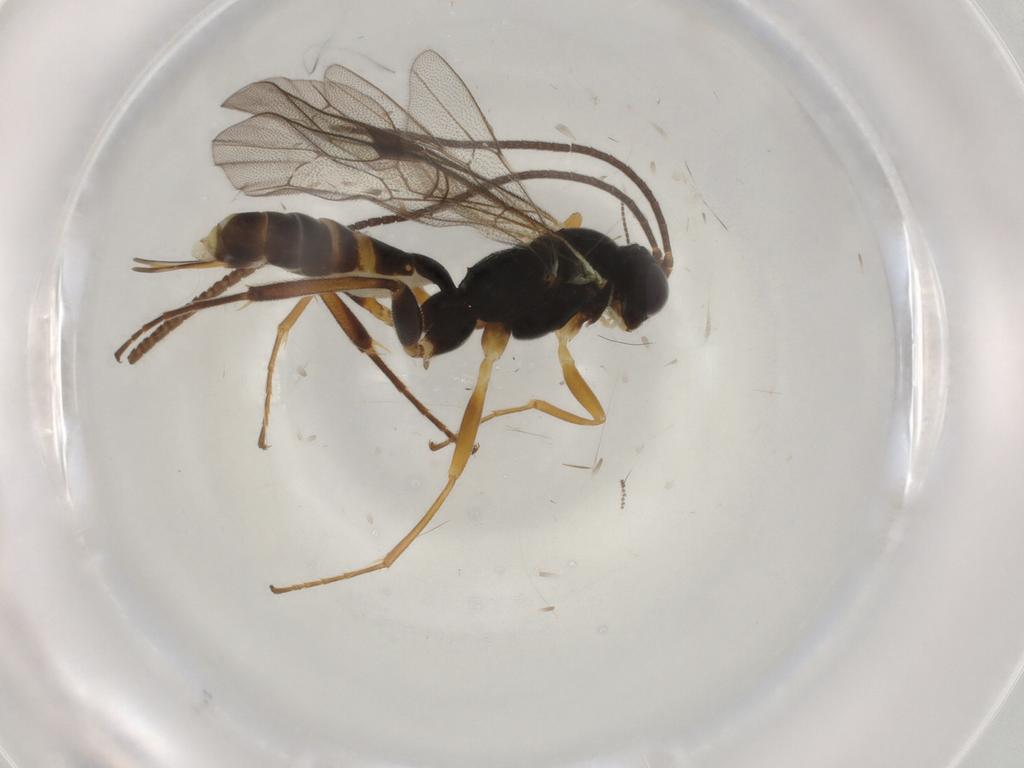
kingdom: Animalia
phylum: Arthropoda
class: Insecta
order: Hymenoptera
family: Ichneumonidae
